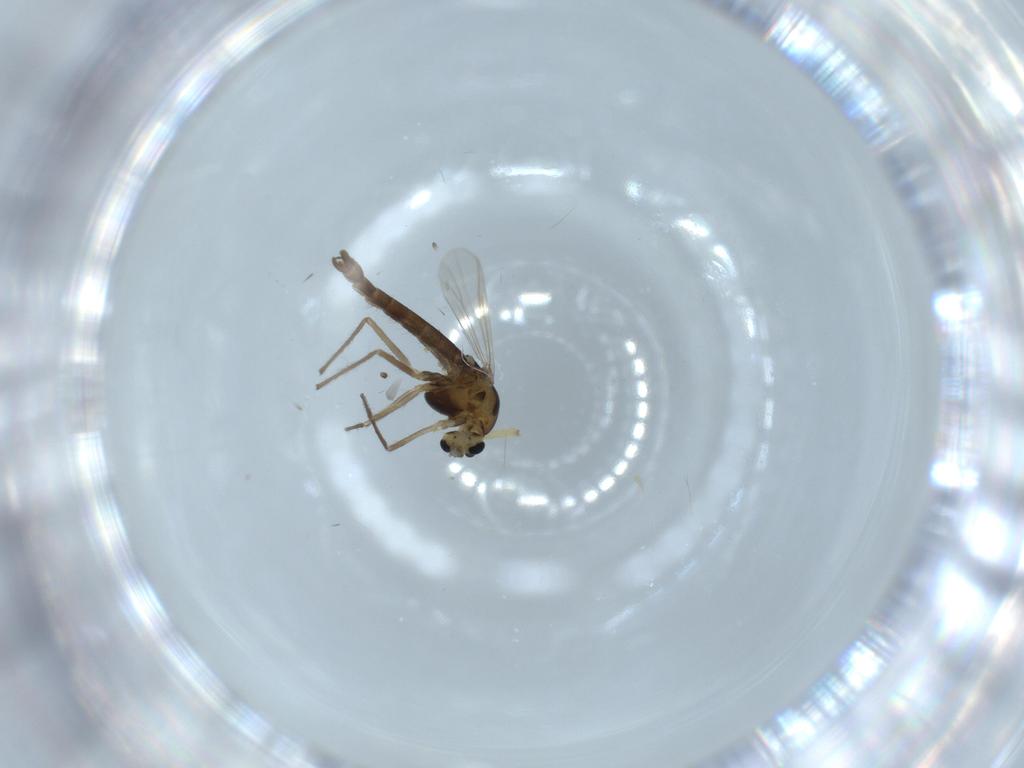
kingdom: Animalia
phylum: Arthropoda
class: Insecta
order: Diptera
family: Chironomidae
